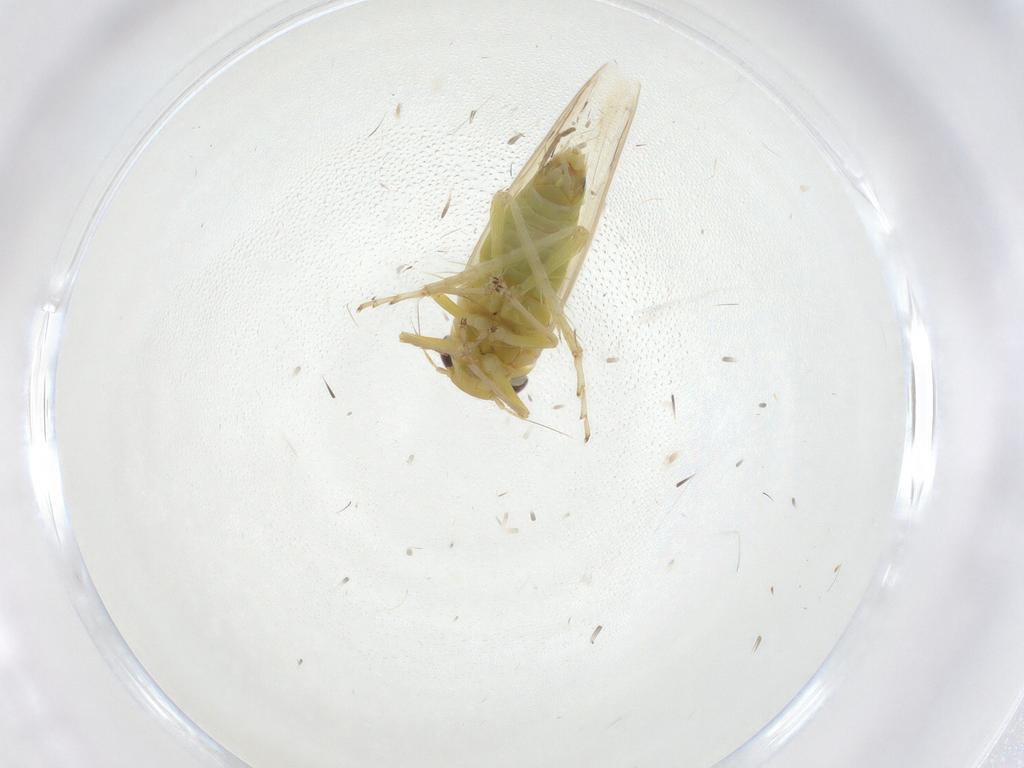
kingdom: Animalia
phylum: Arthropoda
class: Insecta
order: Hemiptera
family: Cicadellidae
